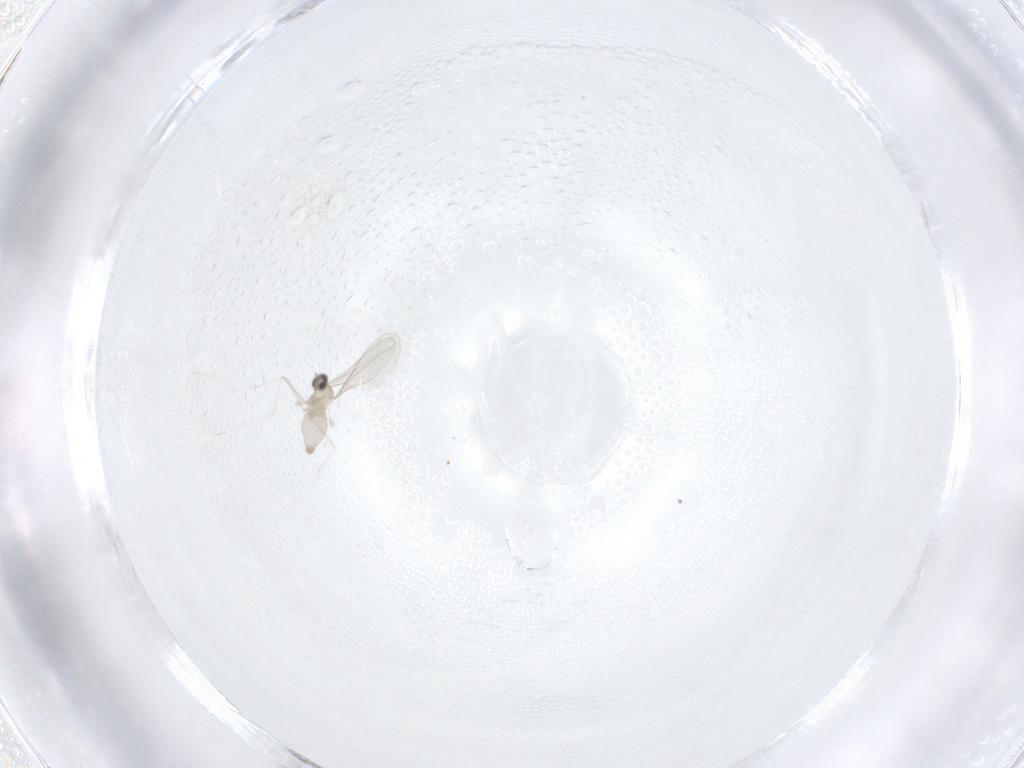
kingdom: Animalia
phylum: Arthropoda
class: Insecta
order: Diptera
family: Cecidomyiidae
